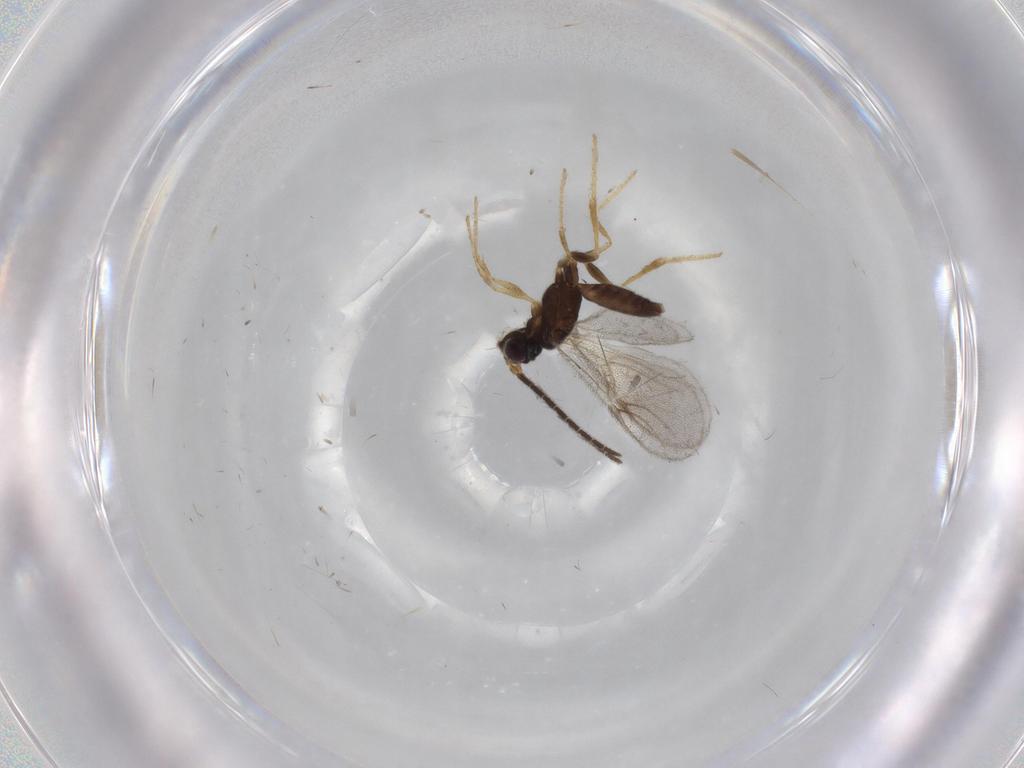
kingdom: Animalia
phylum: Arthropoda
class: Insecta
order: Hymenoptera
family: Dryinidae
